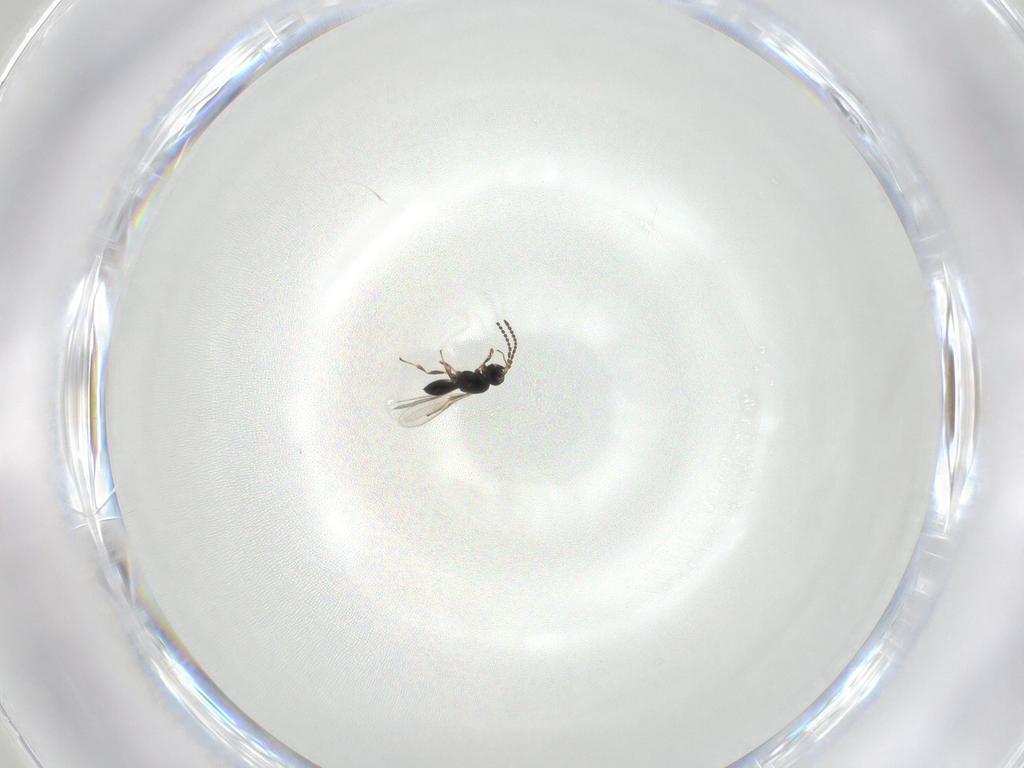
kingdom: Animalia
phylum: Arthropoda
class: Insecta
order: Hymenoptera
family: Scelionidae
